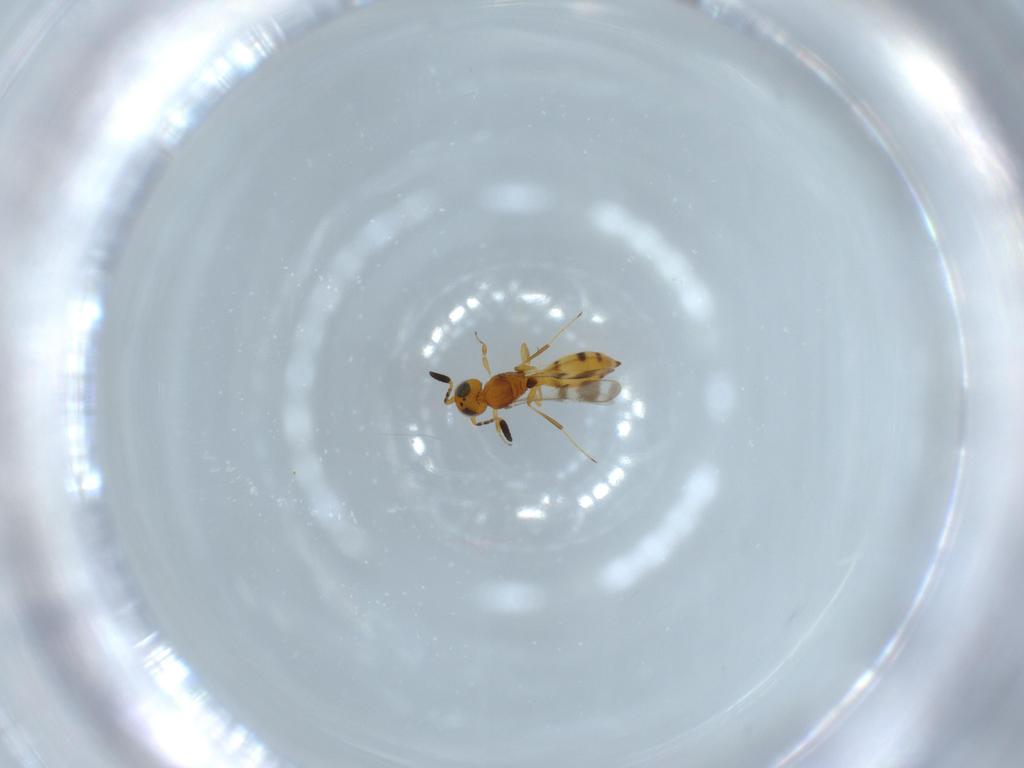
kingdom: Animalia
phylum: Arthropoda
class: Insecta
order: Hymenoptera
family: Scelionidae
